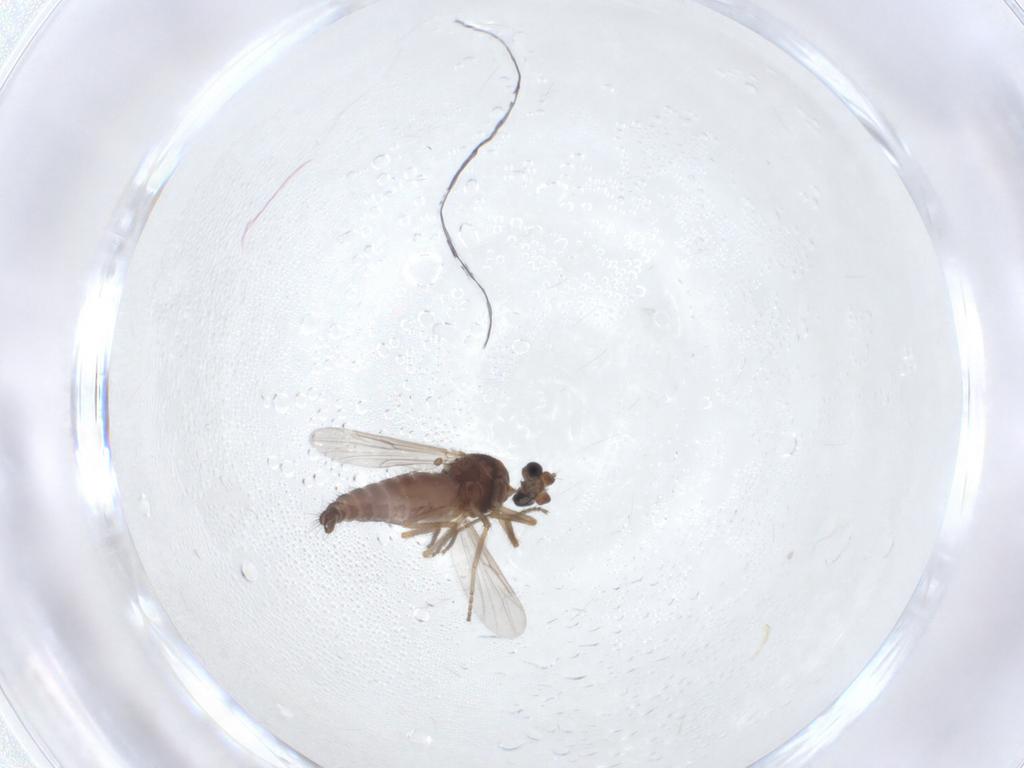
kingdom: Animalia
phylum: Arthropoda
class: Insecta
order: Diptera
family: Ceratopogonidae
